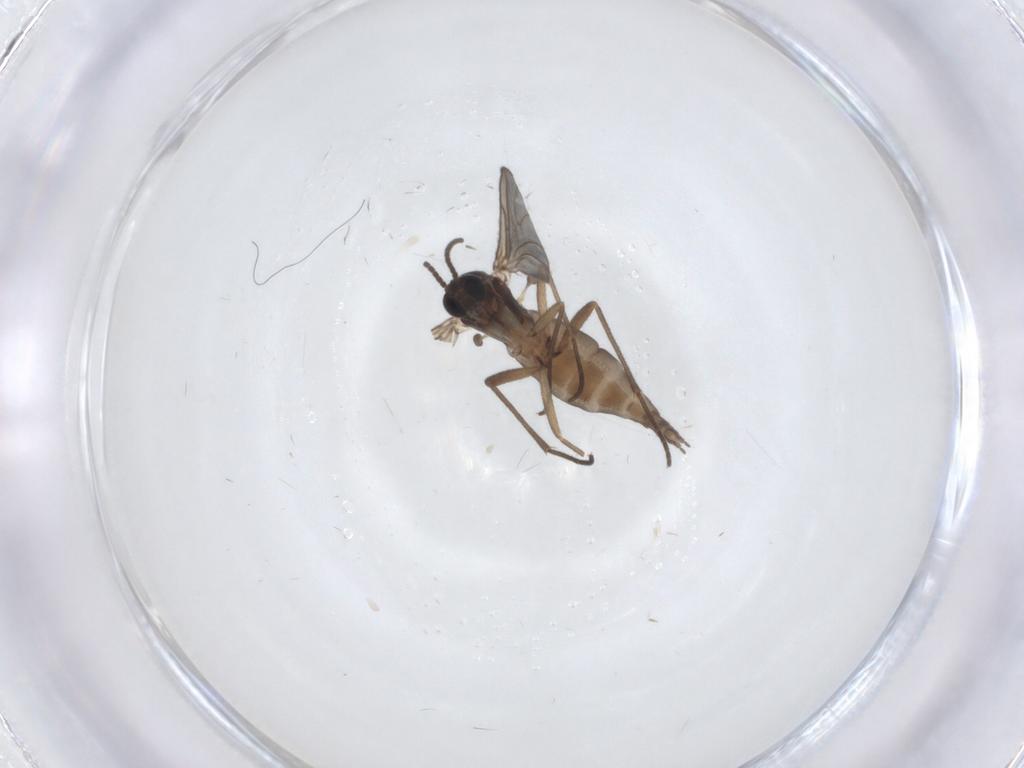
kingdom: Animalia
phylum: Arthropoda
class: Insecta
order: Diptera
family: Sciaridae
